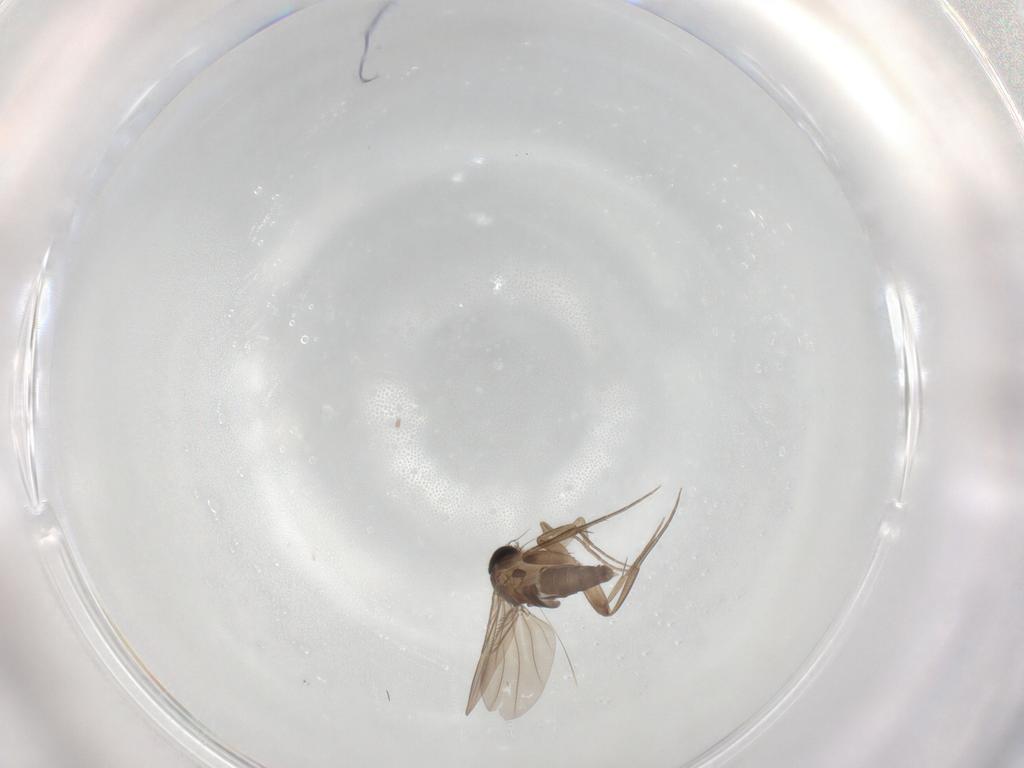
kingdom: Animalia
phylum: Arthropoda
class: Insecta
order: Diptera
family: Phoridae
